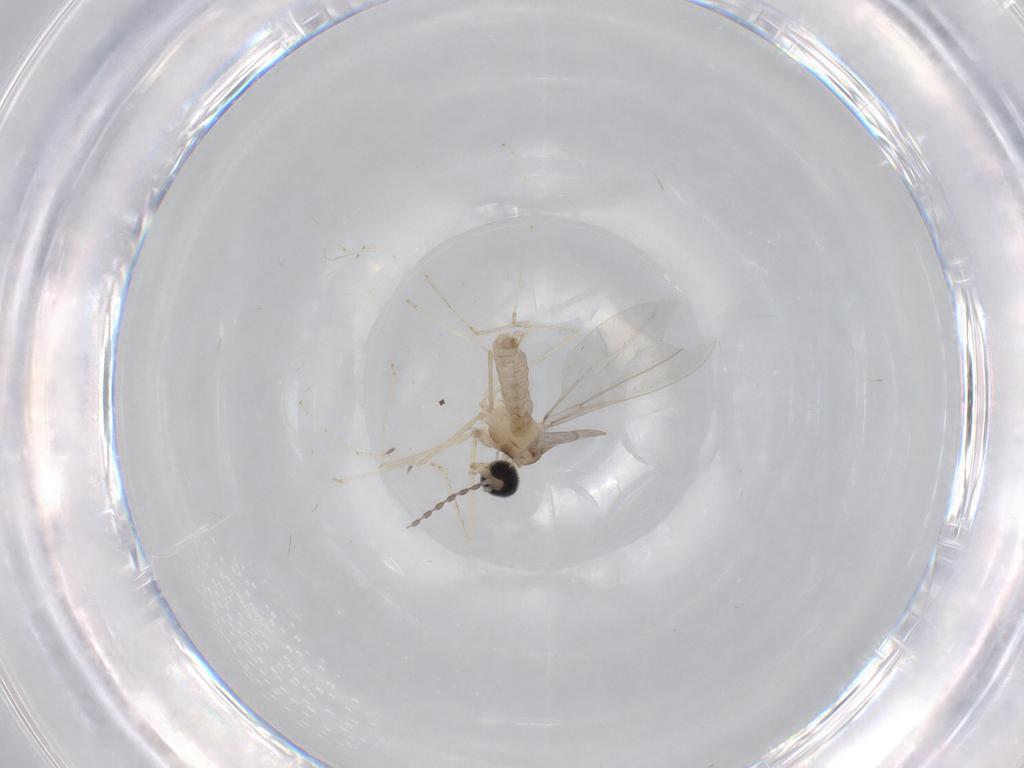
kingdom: Animalia
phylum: Arthropoda
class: Insecta
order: Diptera
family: Cecidomyiidae
